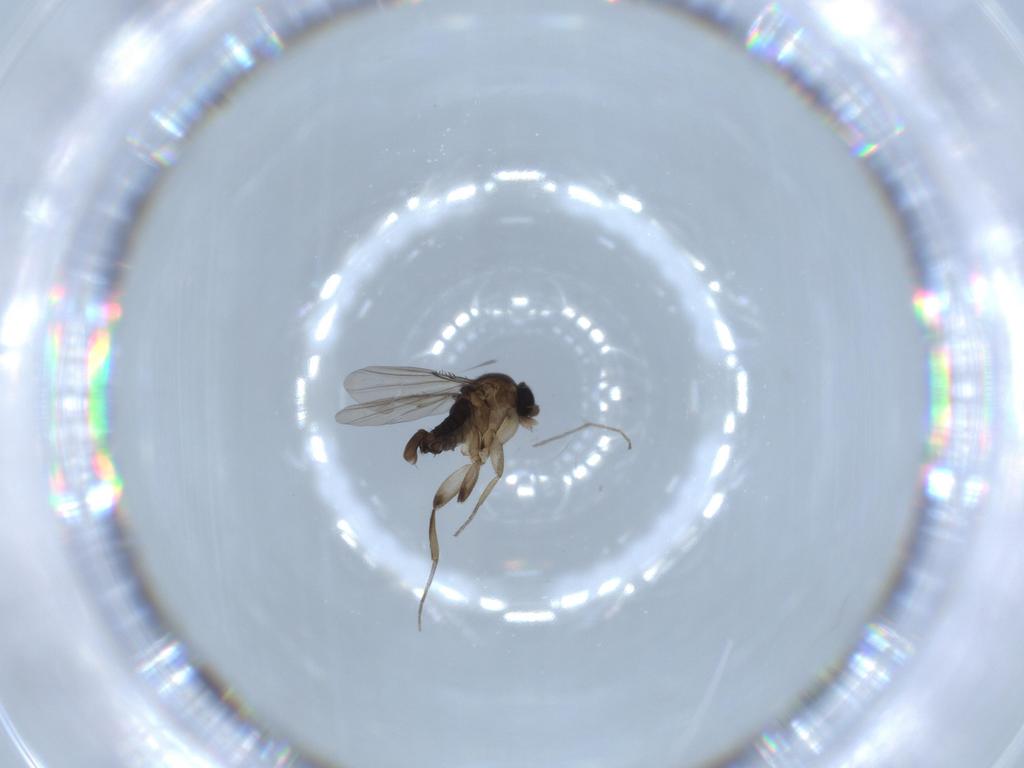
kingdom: Animalia
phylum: Arthropoda
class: Insecta
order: Diptera
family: Phoridae
